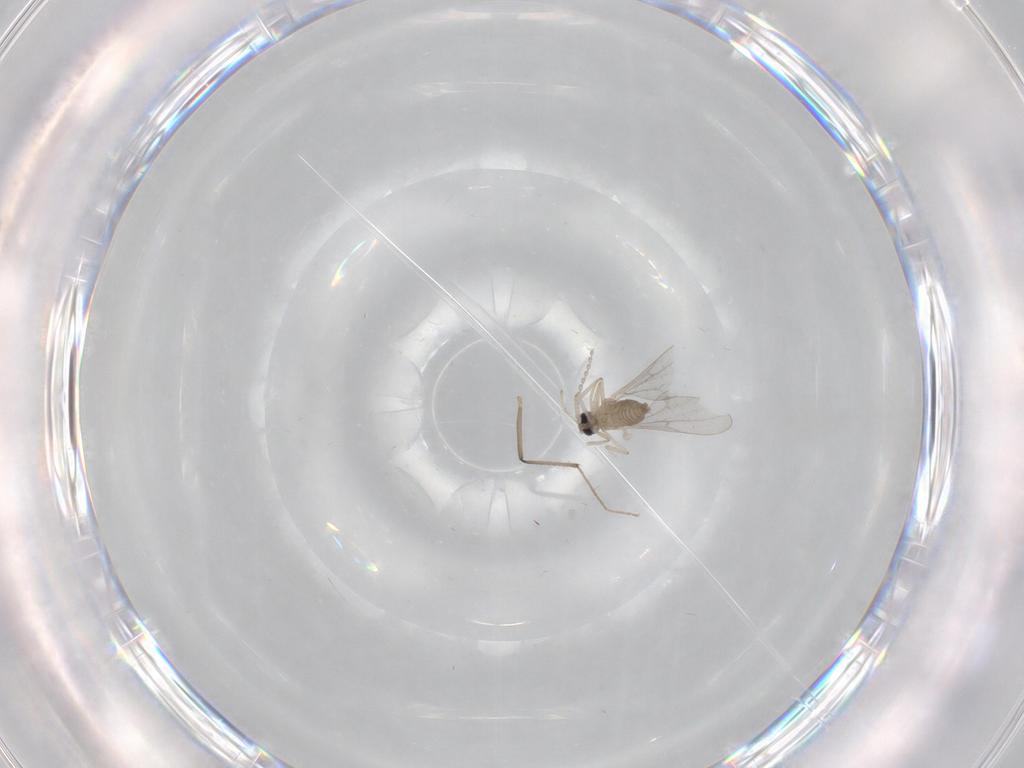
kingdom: Animalia
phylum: Arthropoda
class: Insecta
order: Diptera
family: Cecidomyiidae
